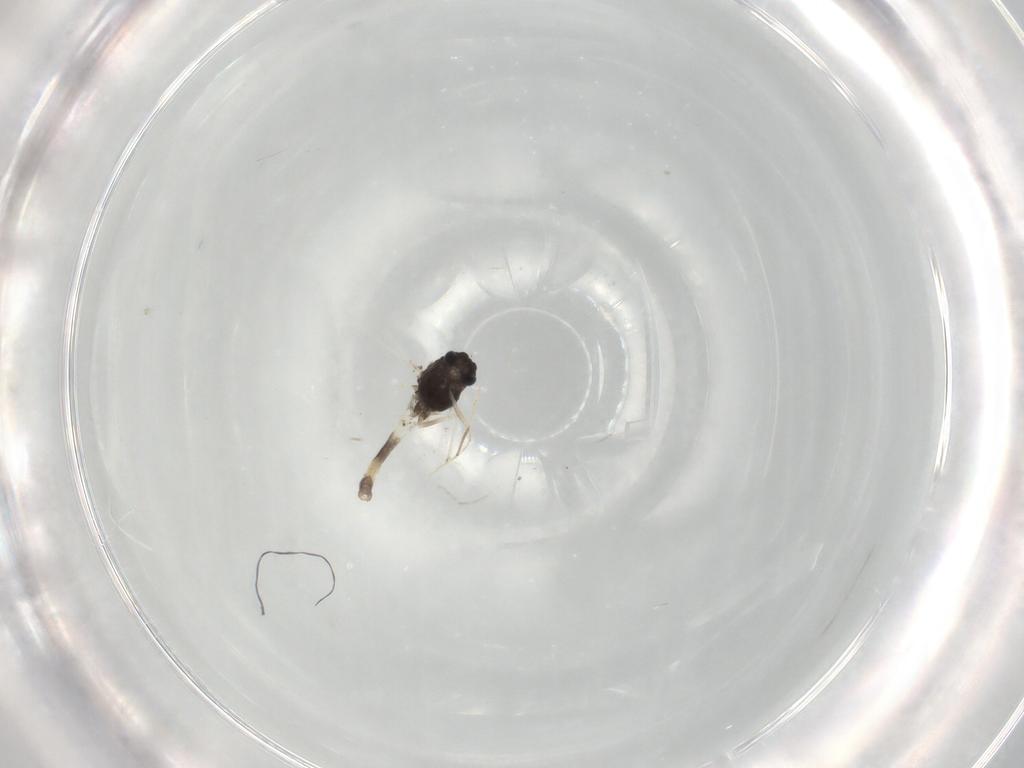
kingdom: Animalia
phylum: Arthropoda
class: Insecta
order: Diptera
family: Chironomidae
